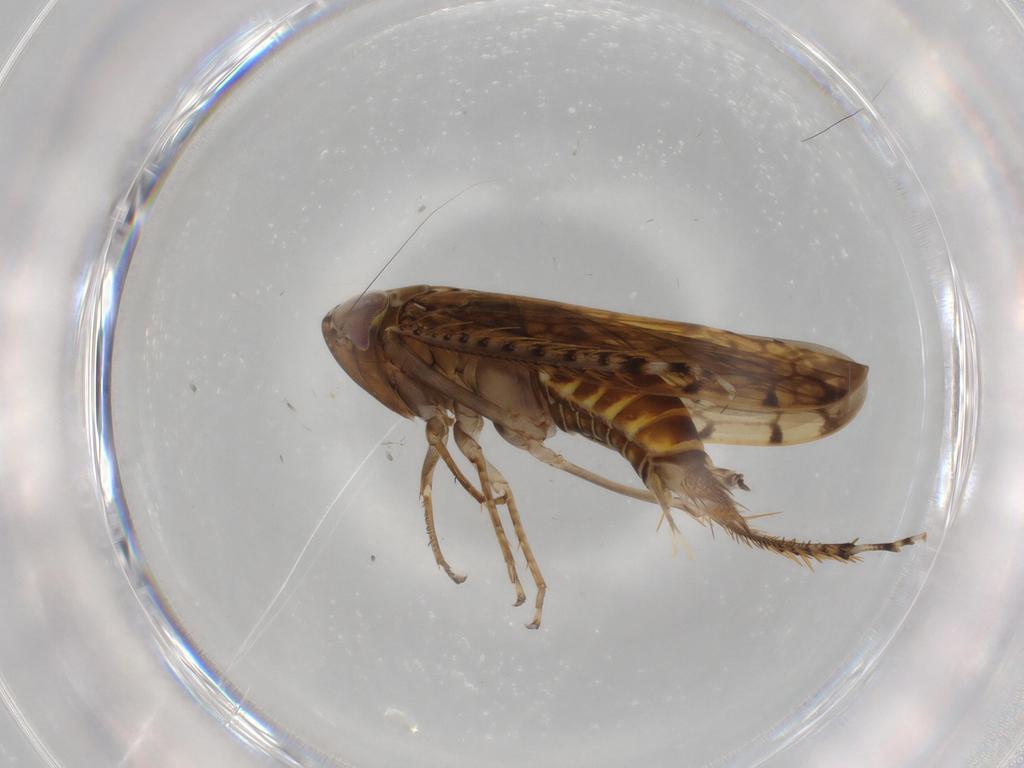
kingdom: Animalia
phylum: Arthropoda
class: Insecta
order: Hemiptera
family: Cicadellidae
